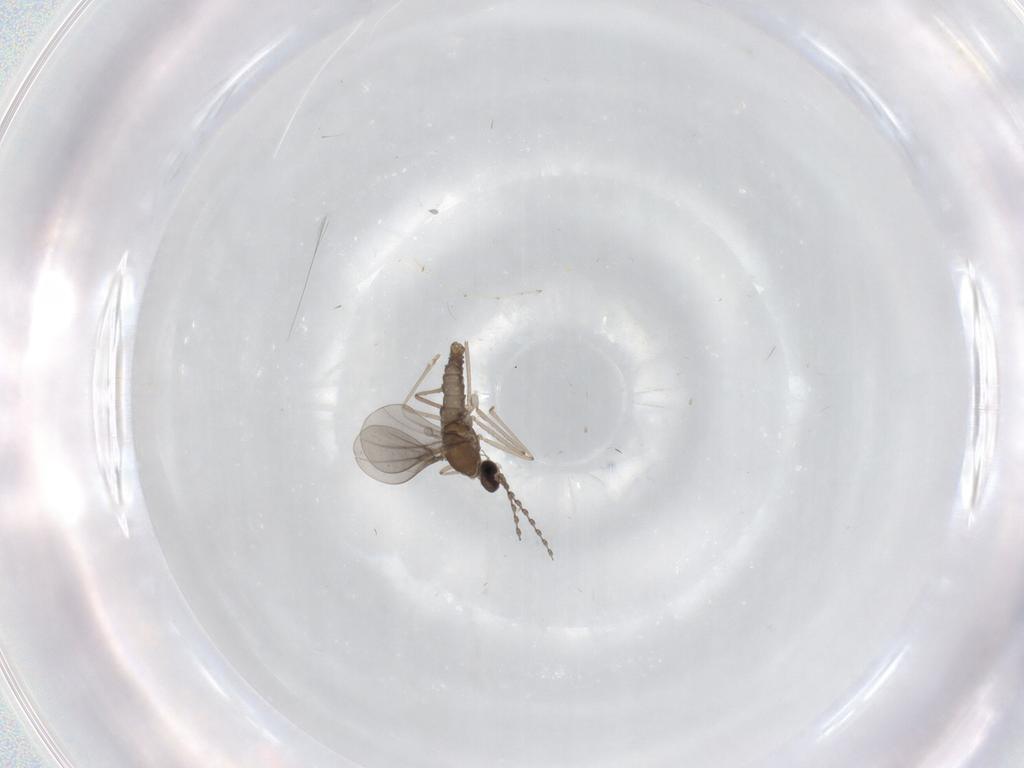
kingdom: Animalia
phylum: Arthropoda
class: Insecta
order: Diptera
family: Cecidomyiidae
